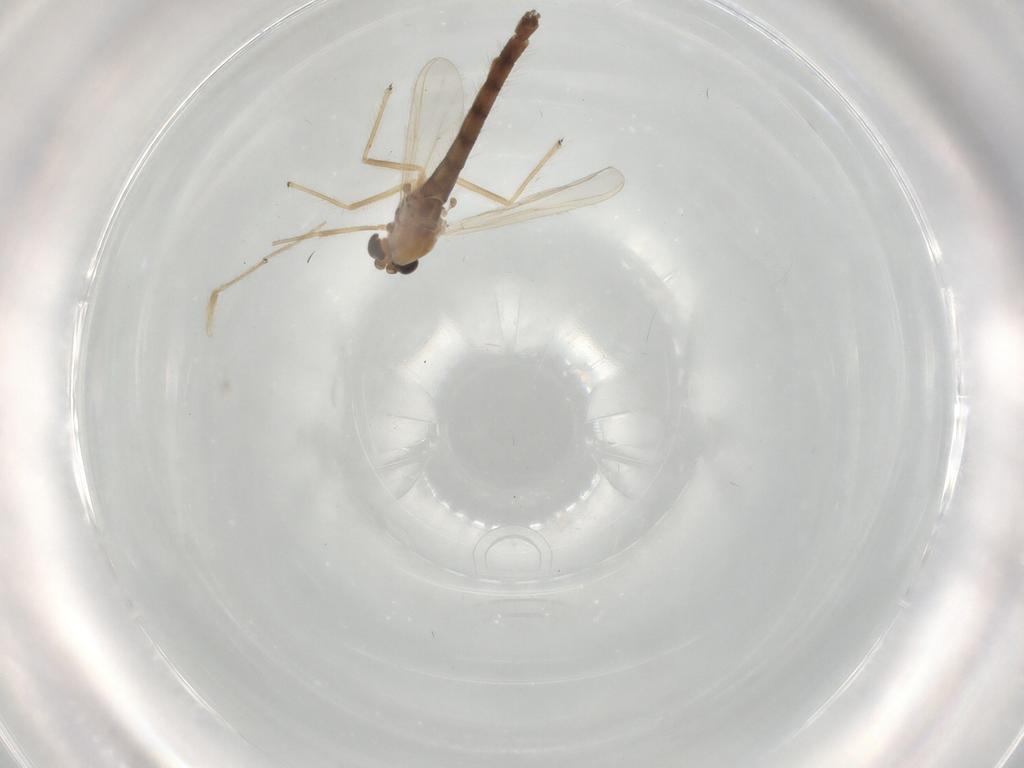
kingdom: Animalia
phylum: Arthropoda
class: Insecta
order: Diptera
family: Chironomidae
